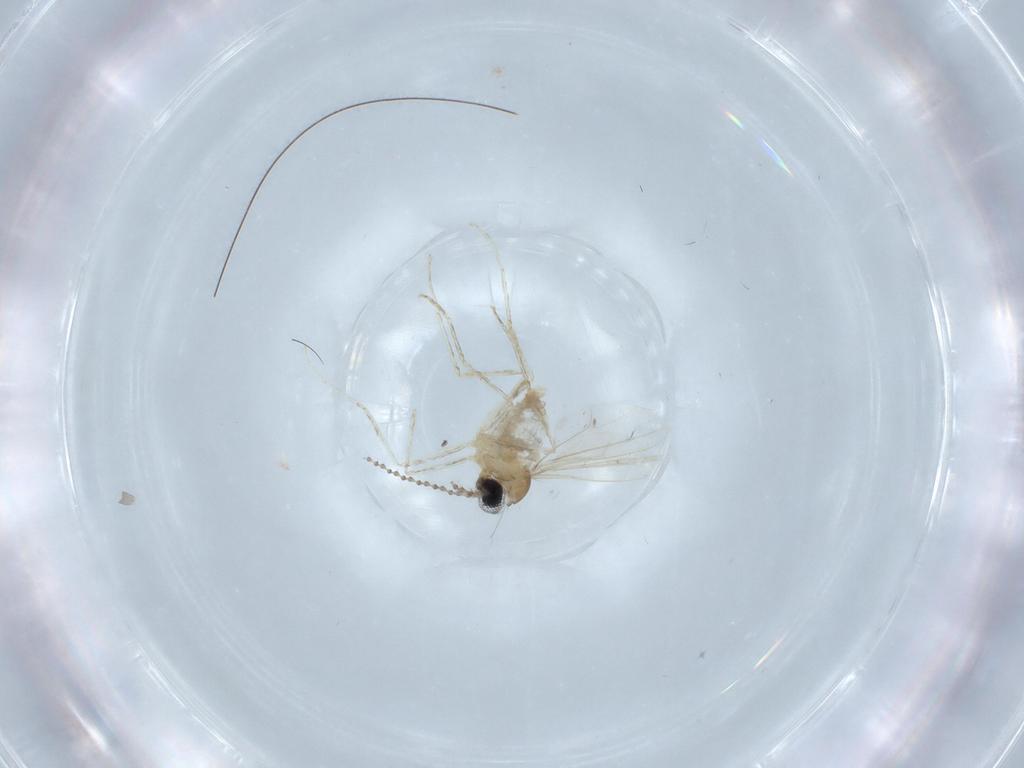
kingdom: Animalia
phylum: Arthropoda
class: Insecta
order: Diptera
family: Cecidomyiidae
